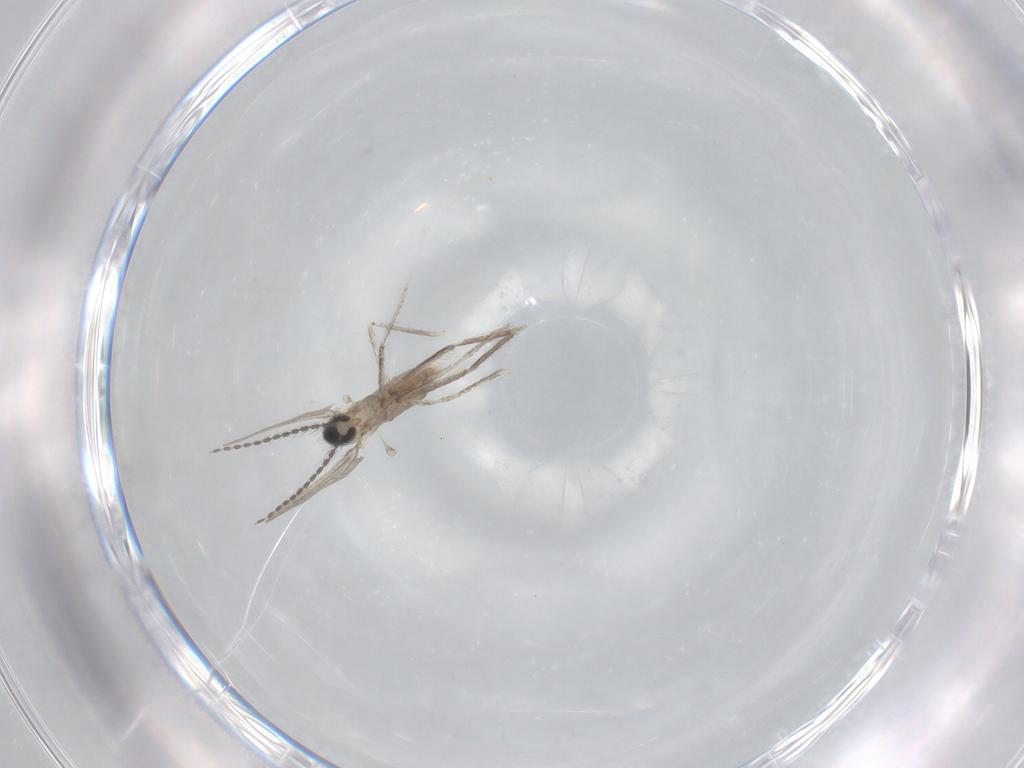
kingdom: Animalia
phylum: Arthropoda
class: Insecta
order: Diptera
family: Cecidomyiidae
